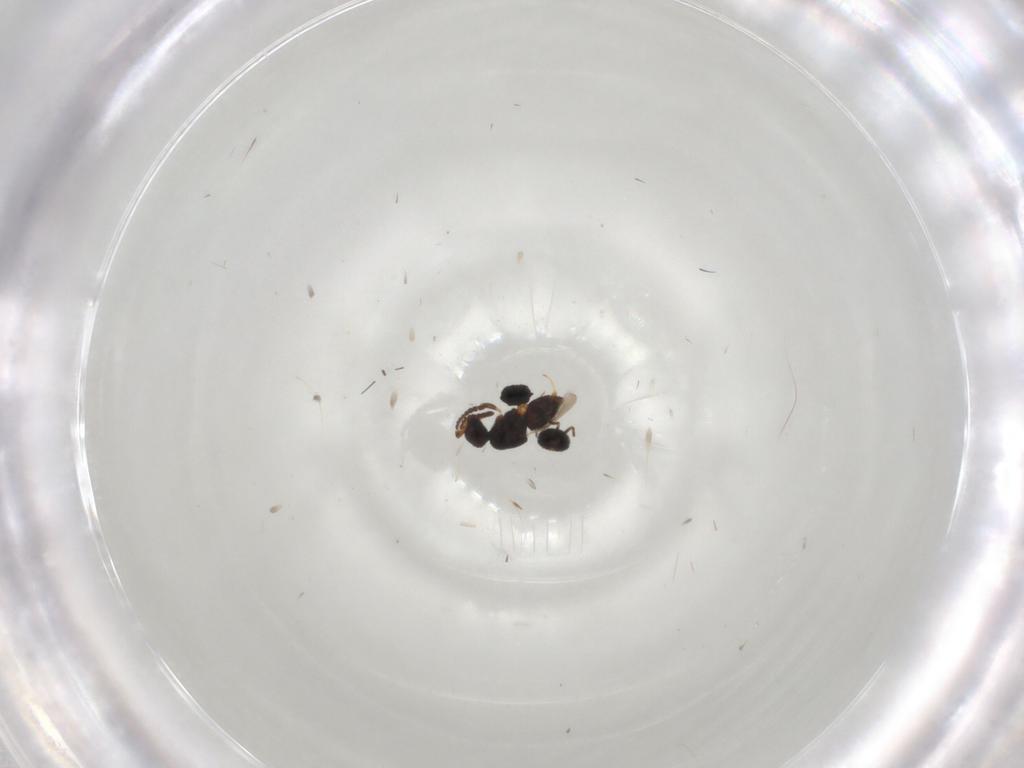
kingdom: Animalia
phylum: Arthropoda
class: Insecta
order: Hymenoptera
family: Scelionidae
